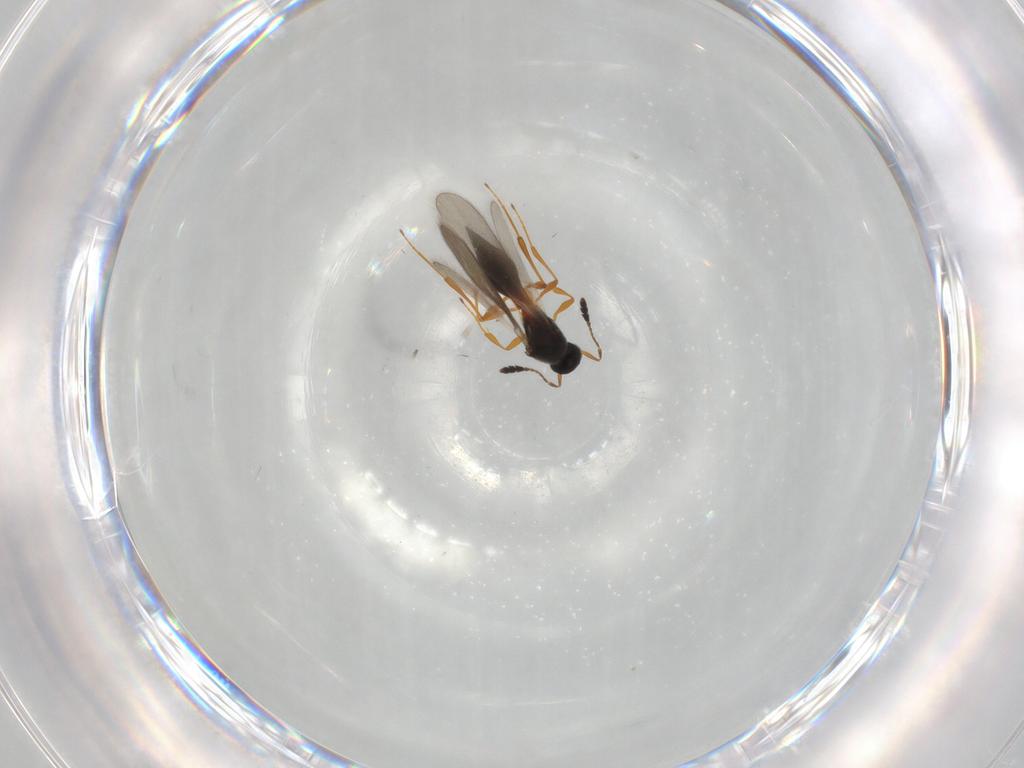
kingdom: Animalia
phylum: Arthropoda
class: Insecta
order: Hymenoptera
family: Platygastridae
